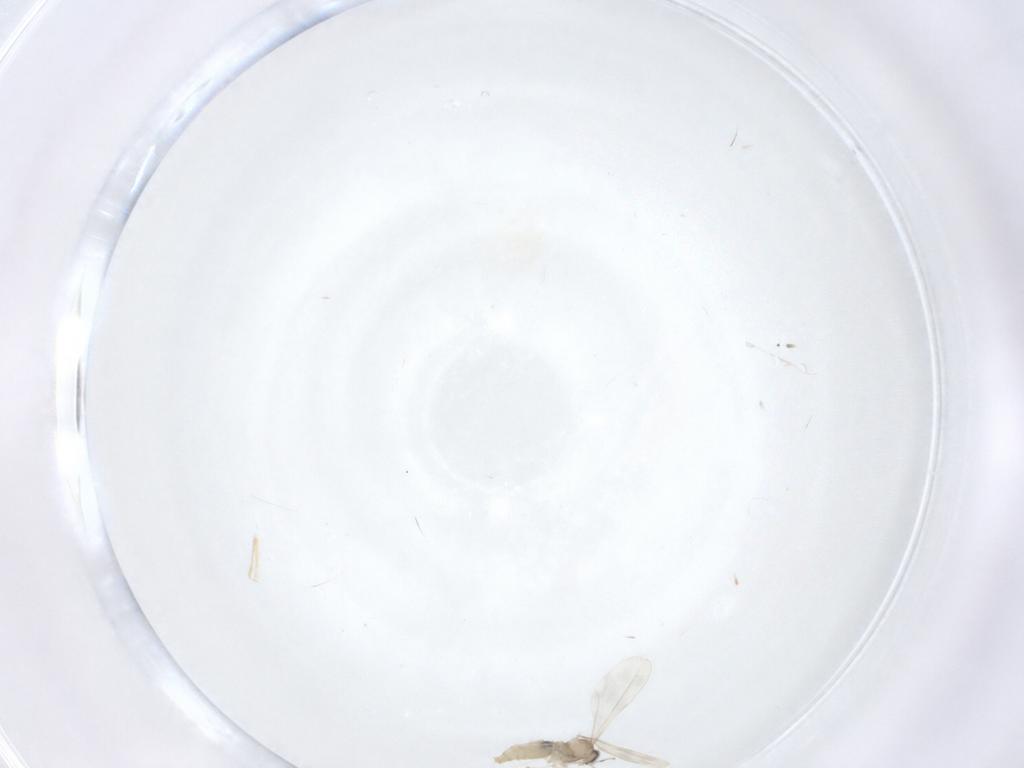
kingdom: Animalia
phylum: Arthropoda
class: Insecta
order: Diptera
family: Cecidomyiidae
